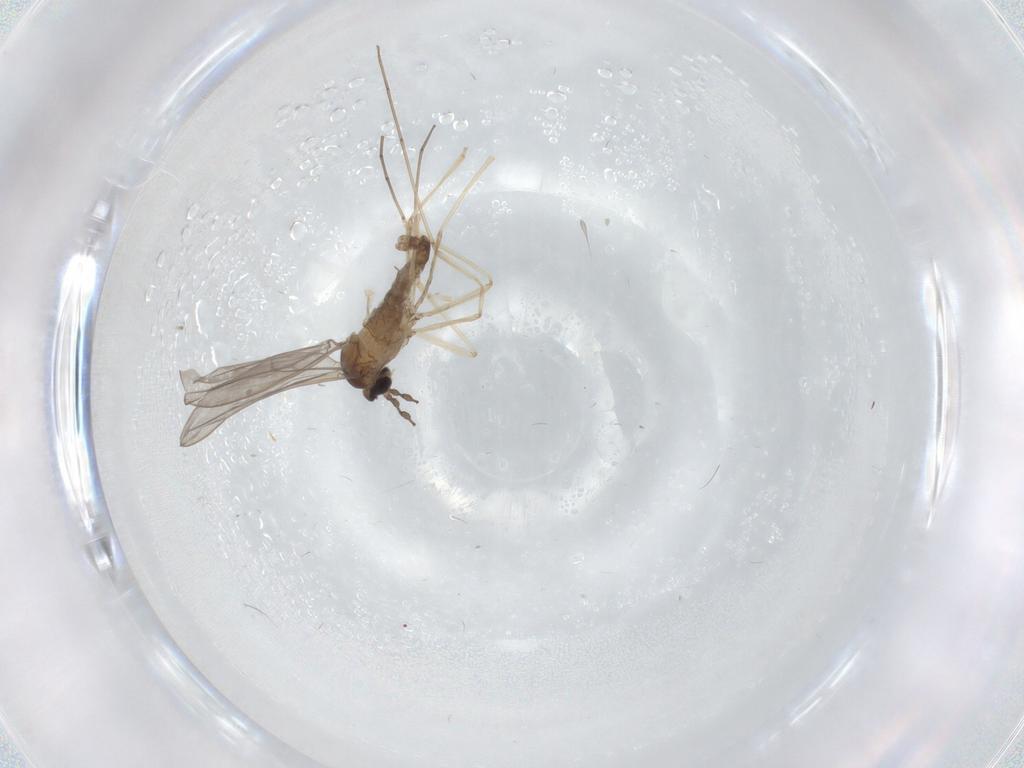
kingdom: Animalia
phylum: Arthropoda
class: Insecta
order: Diptera
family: Cecidomyiidae
